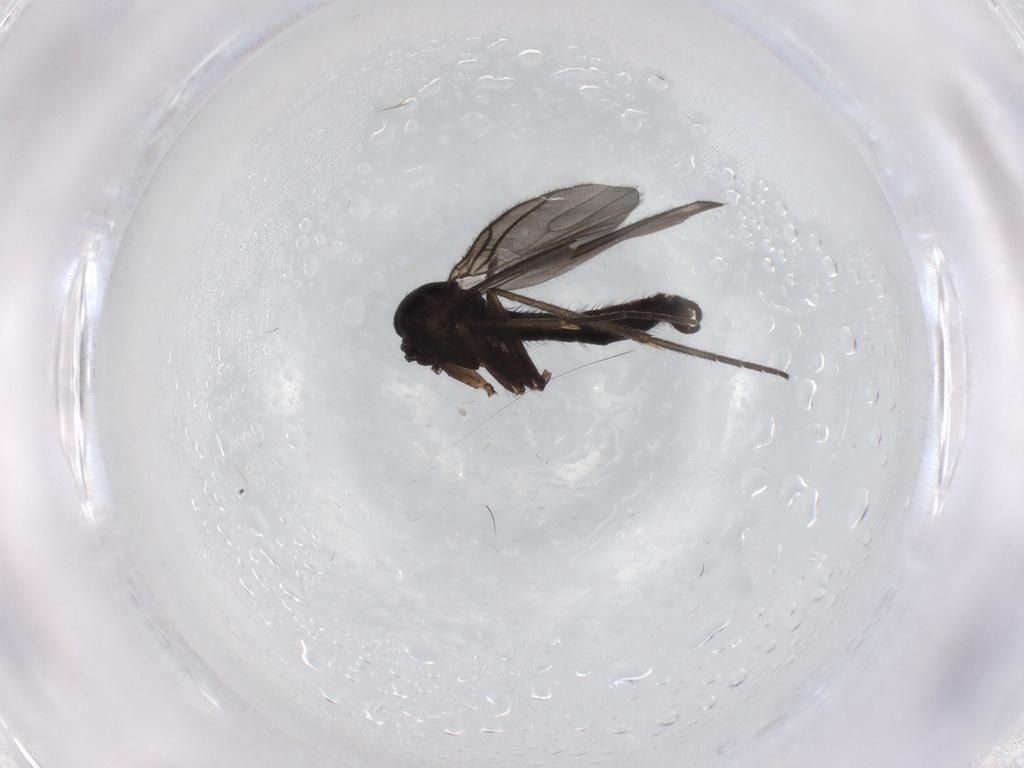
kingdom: Animalia
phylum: Arthropoda
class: Insecta
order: Diptera
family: Sciaridae
